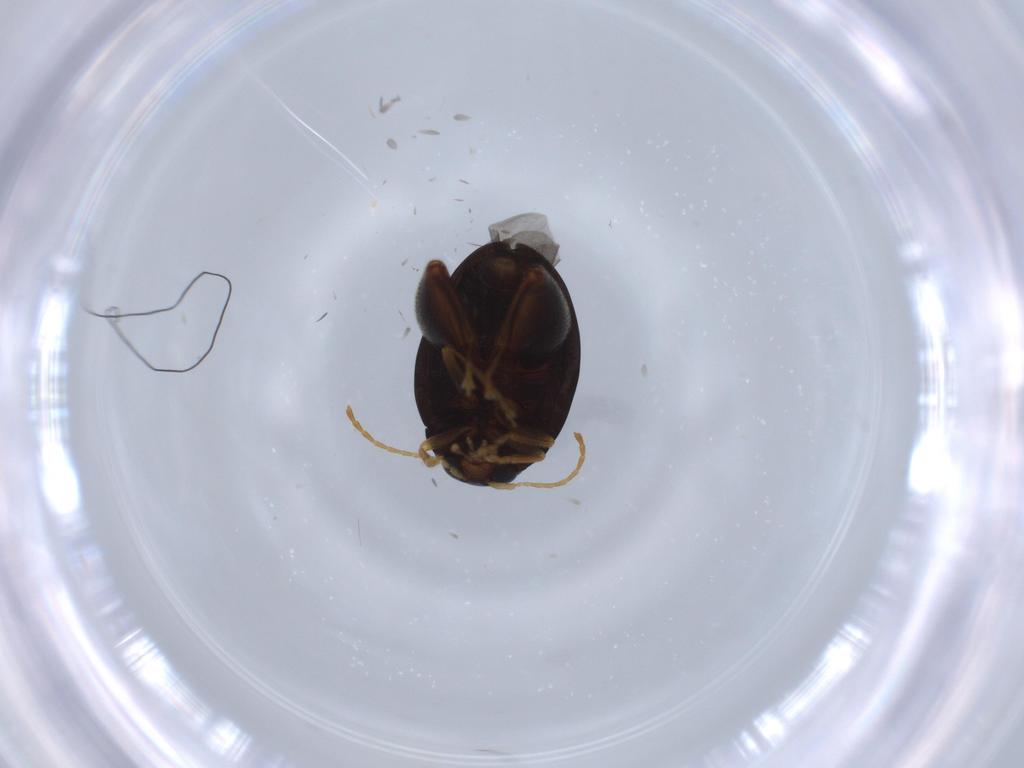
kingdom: Animalia
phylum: Arthropoda
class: Insecta
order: Coleoptera
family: Chrysomelidae
